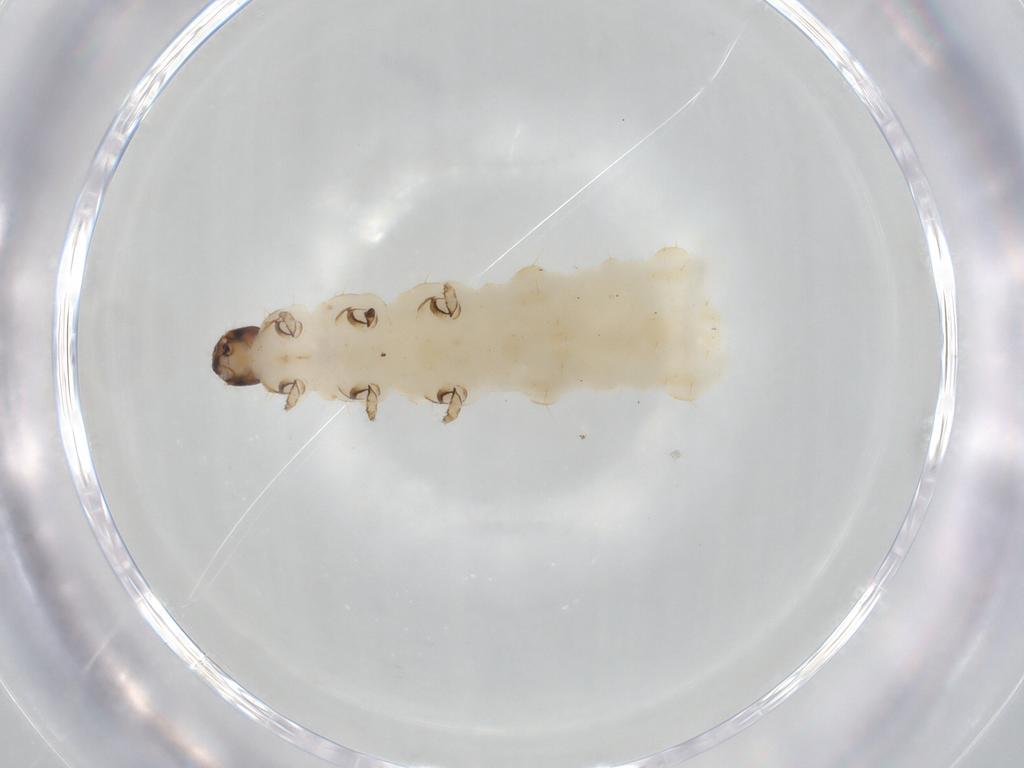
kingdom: Animalia
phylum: Arthropoda
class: Insecta
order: Coleoptera
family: Chrysomelidae
